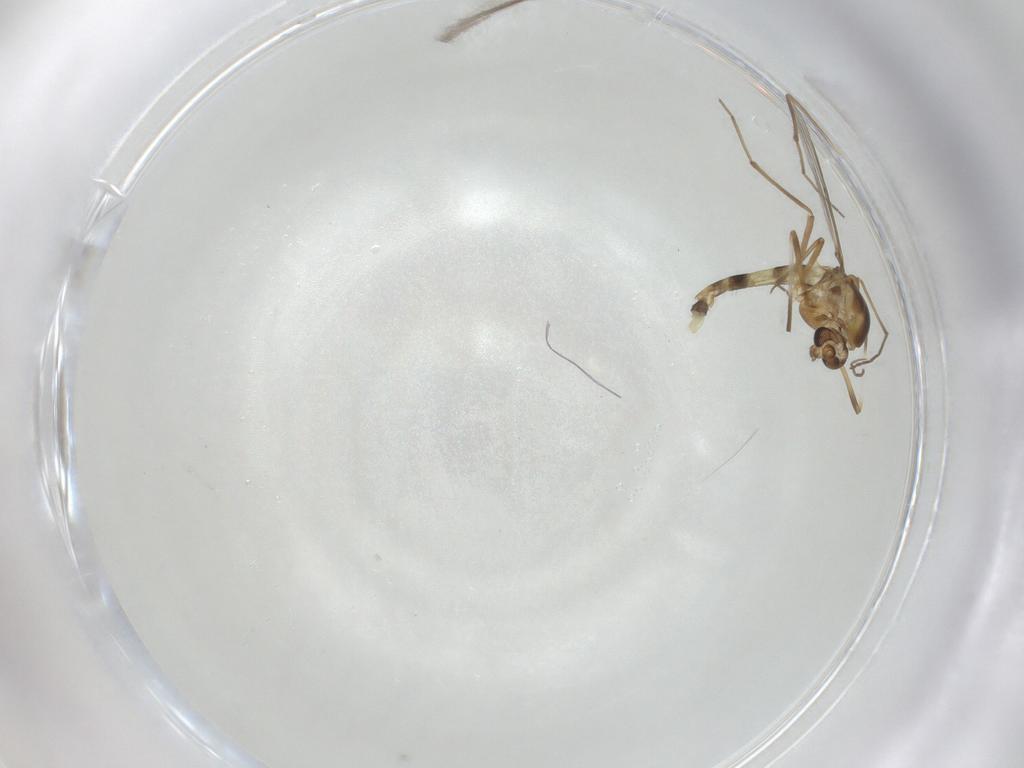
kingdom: Animalia
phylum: Arthropoda
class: Insecta
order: Diptera
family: Chironomidae
